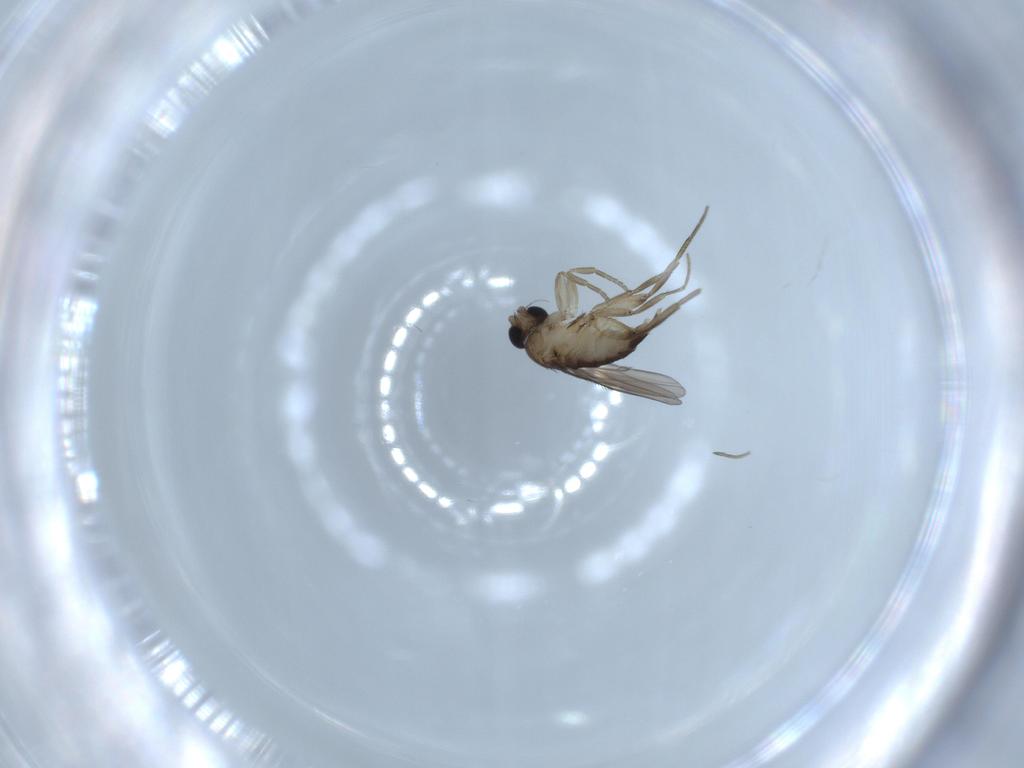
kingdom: Animalia
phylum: Arthropoda
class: Insecta
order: Diptera
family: Phoridae
